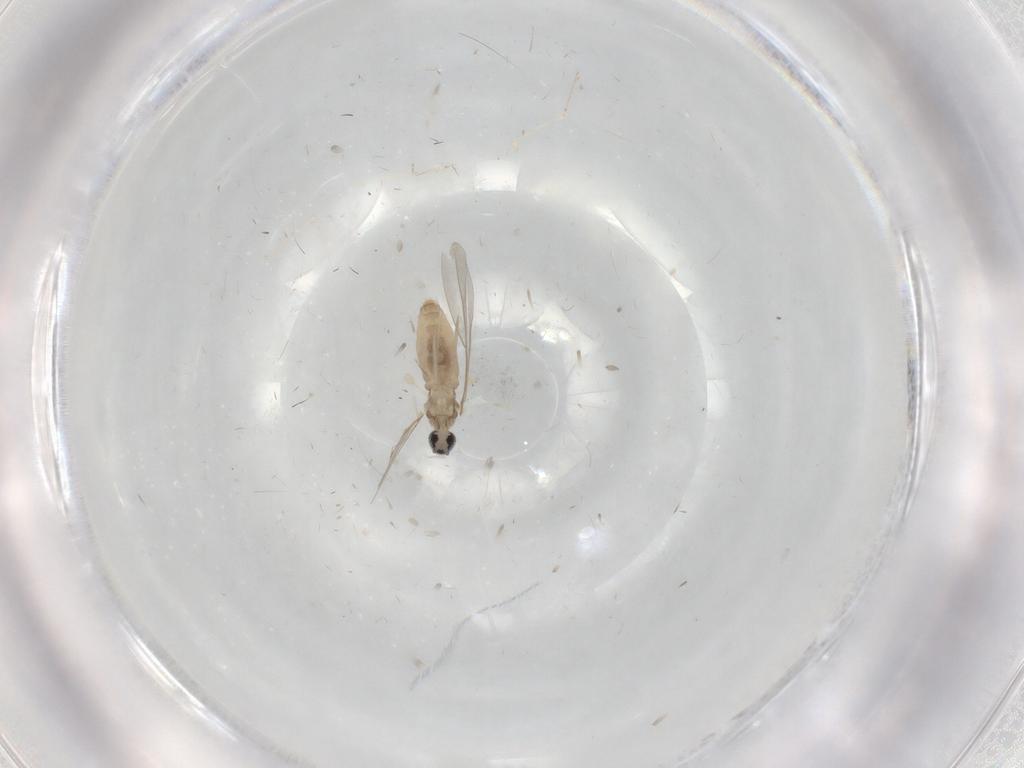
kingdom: Animalia
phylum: Arthropoda
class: Insecta
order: Diptera
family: Cecidomyiidae
